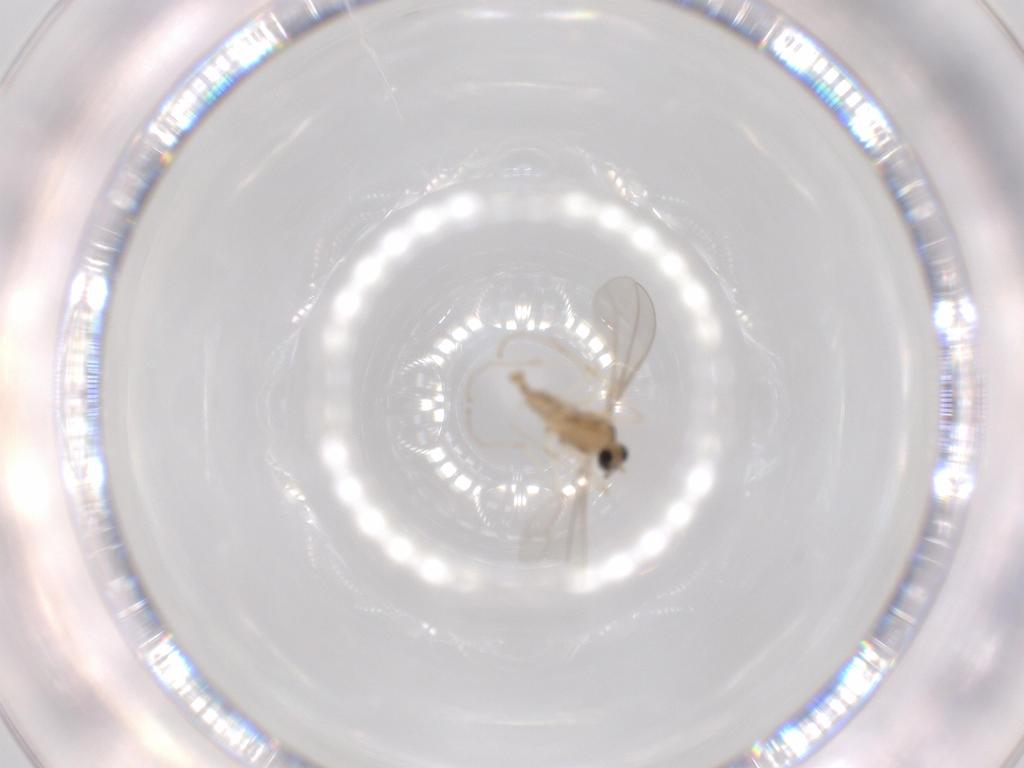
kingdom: Animalia
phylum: Arthropoda
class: Insecta
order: Diptera
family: Cecidomyiidae
